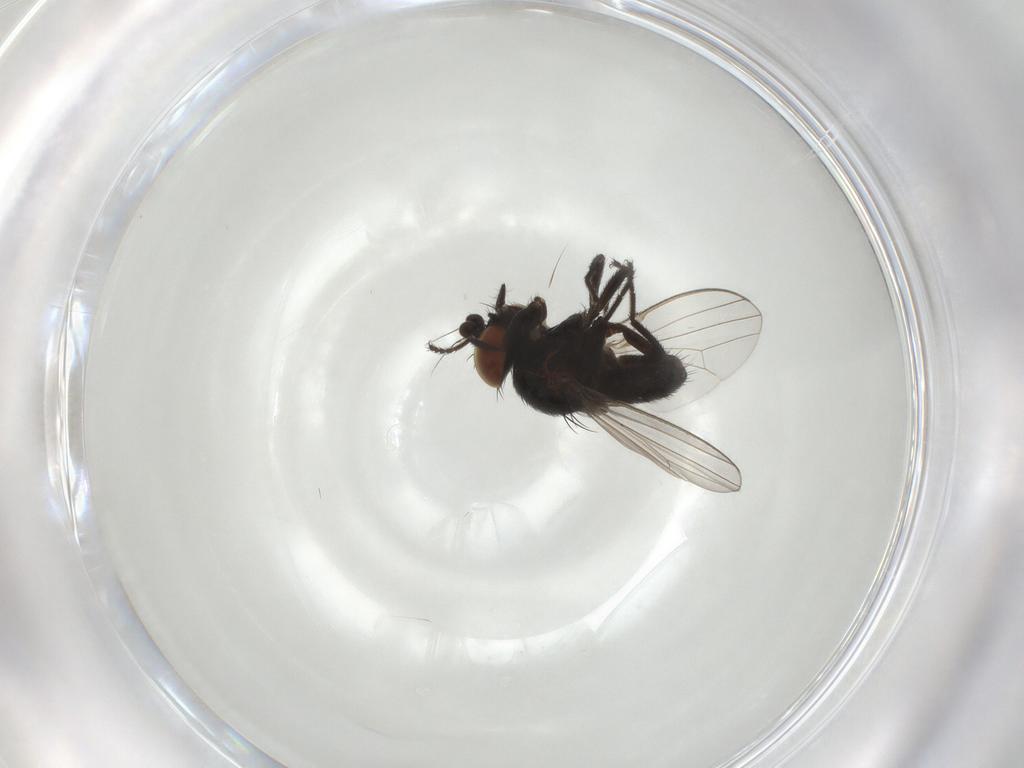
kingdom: Animalia
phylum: Arthropoda
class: Insecta
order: Diptera
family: Milichiidae
